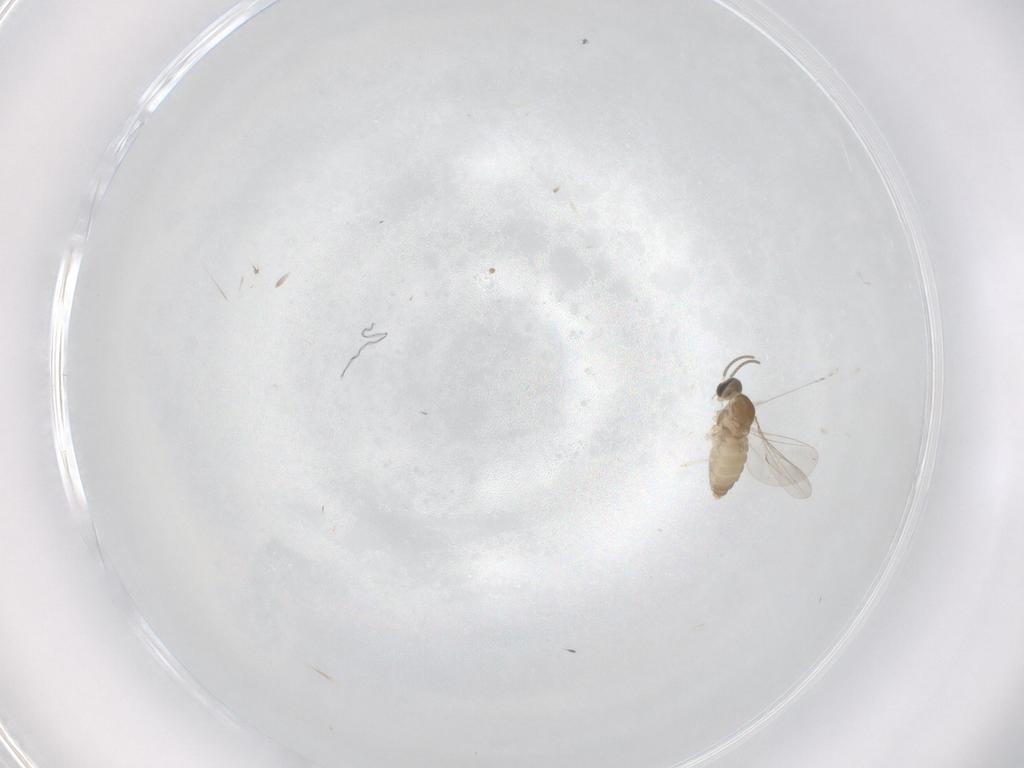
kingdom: Animalia
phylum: Arthropoda
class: Insecta
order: Diptera
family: Cecidomyiidae
